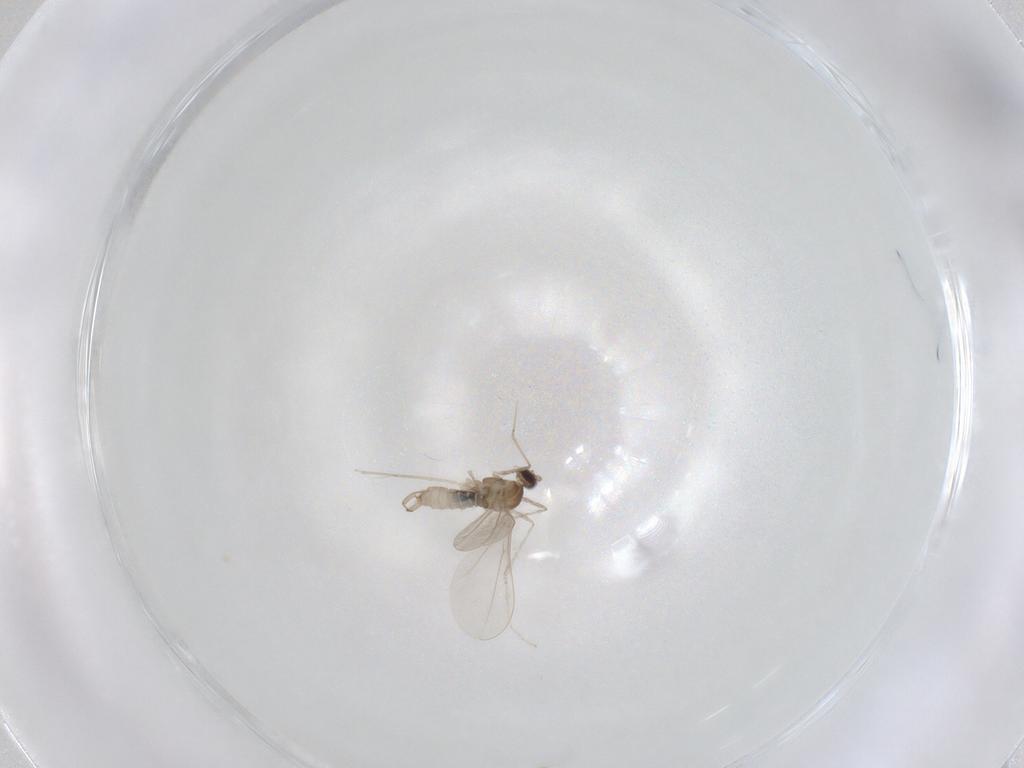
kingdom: Animalia
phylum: Arthropoda
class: Insecta
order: Diptera
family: Cecidomyiidae
